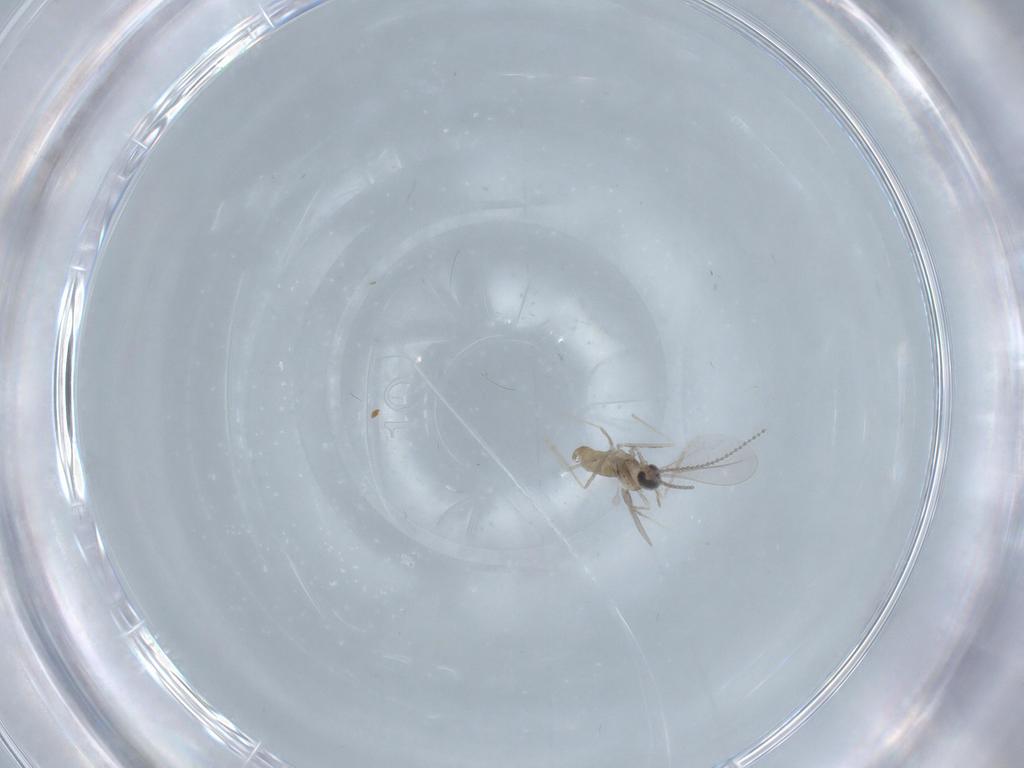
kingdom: Animalia
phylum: Arthropoda
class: Insecta
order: Diptera
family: Cecidomyiidae
